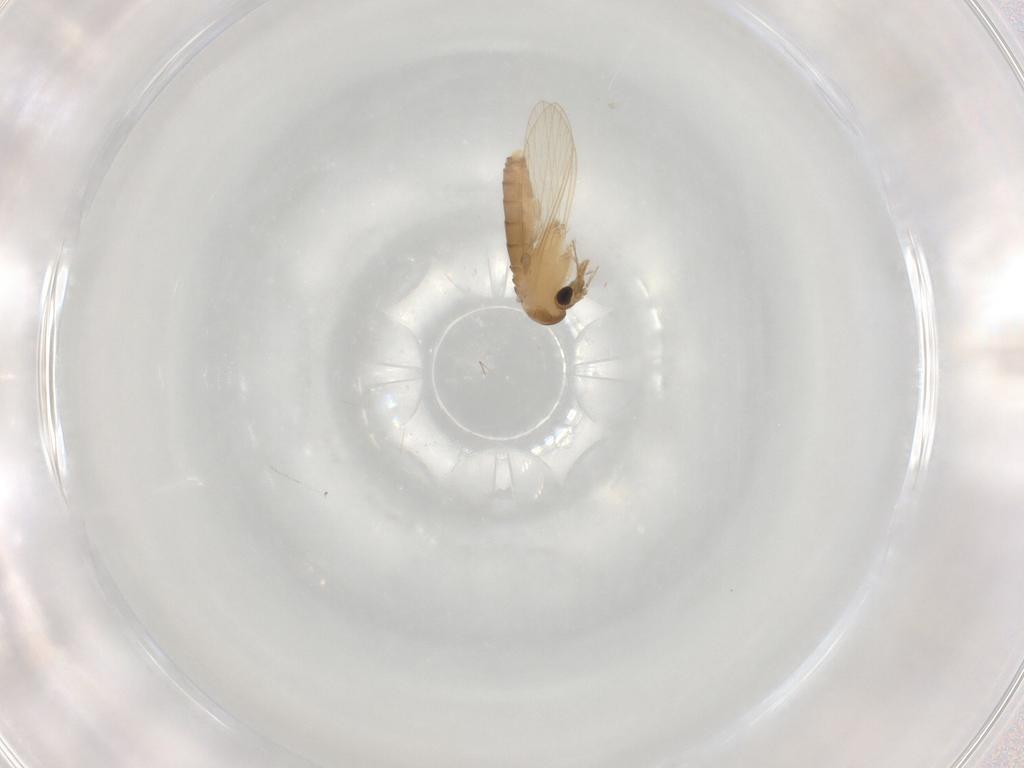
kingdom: Animalia
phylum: Arthropoda
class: Insecta
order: Diptera
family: Psychodidae
